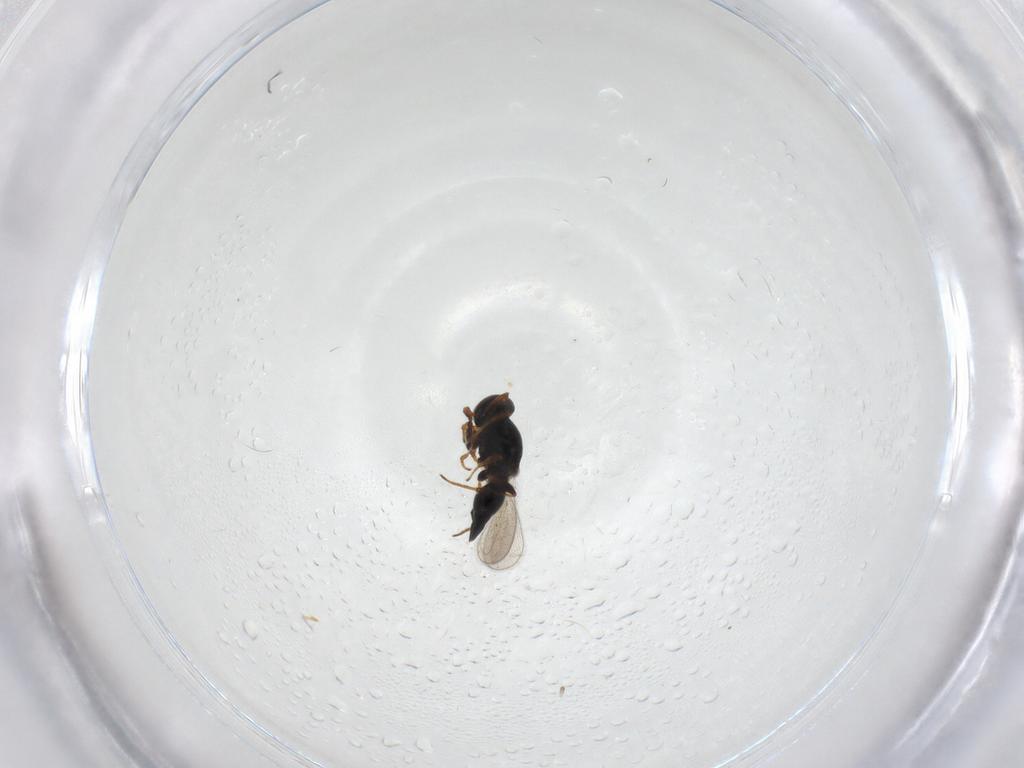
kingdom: Animalia
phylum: Arthropoda
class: Insecta
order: Hymenoptera
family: Platygastridae
